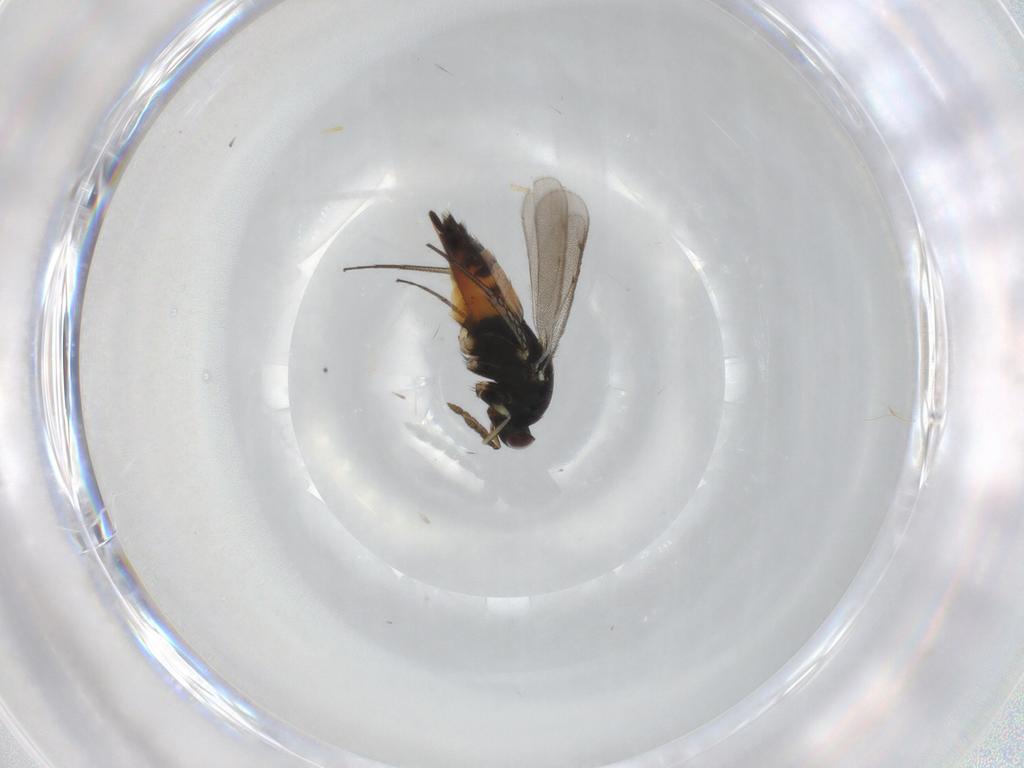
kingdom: Animalia
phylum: Arthropoda
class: Insecta
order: Hymenoptera
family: Eulophidae
